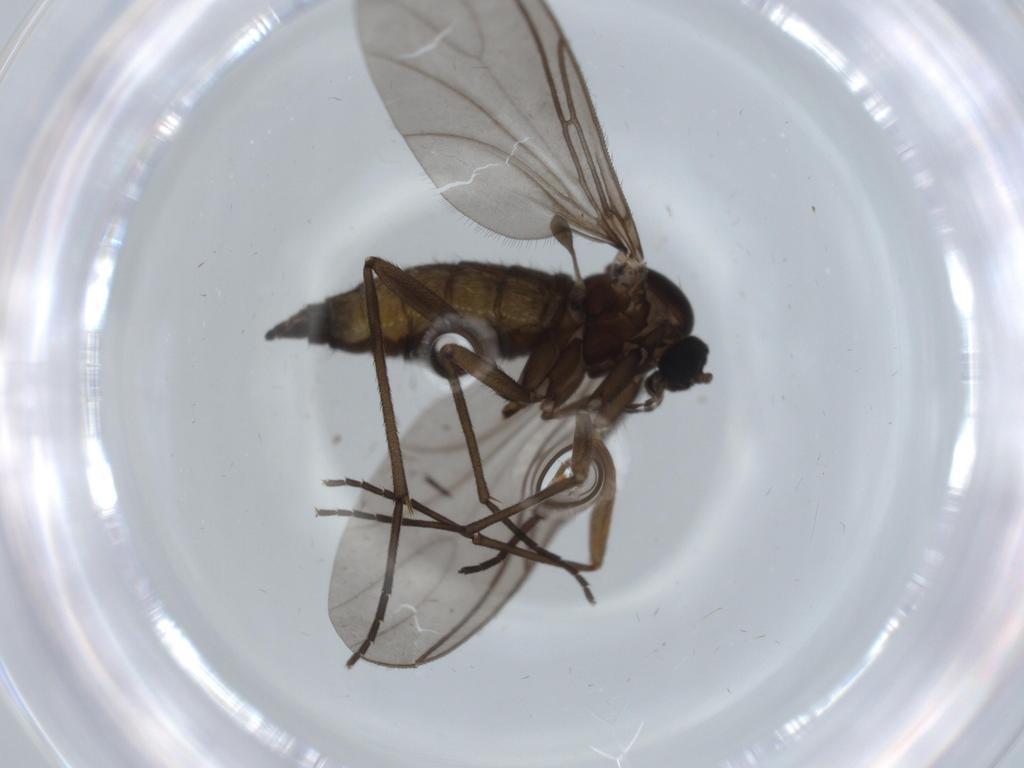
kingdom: Animalia
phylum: Arthropoda
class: Insecta
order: Diptera
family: Sciaridae
